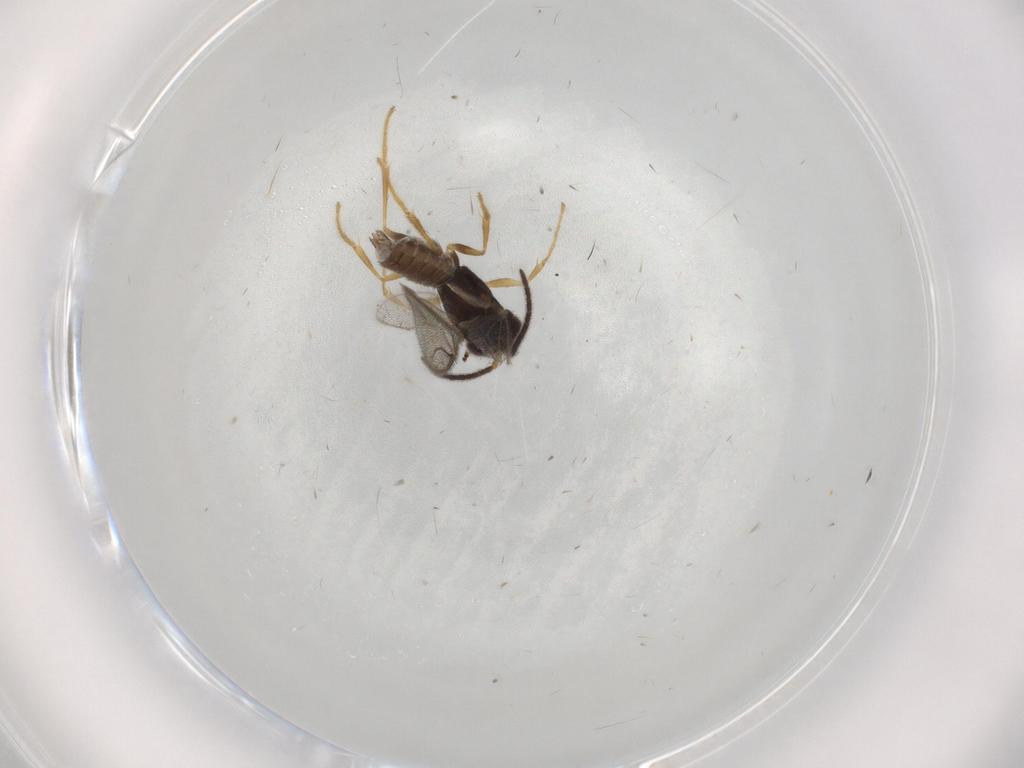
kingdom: Animalia
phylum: Arthropoda
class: Insecta
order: Hymenoptera
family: Dryinidae
